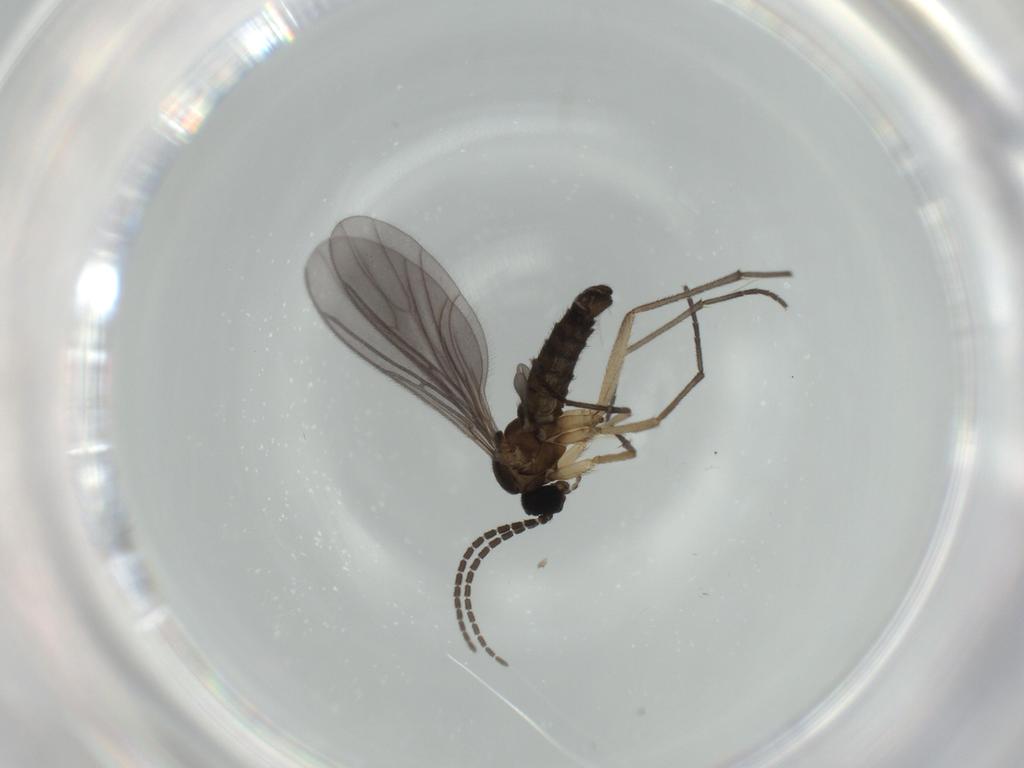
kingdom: Animalia
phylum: Arthropoda
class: Insecta
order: Diptera
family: Sciaridae
